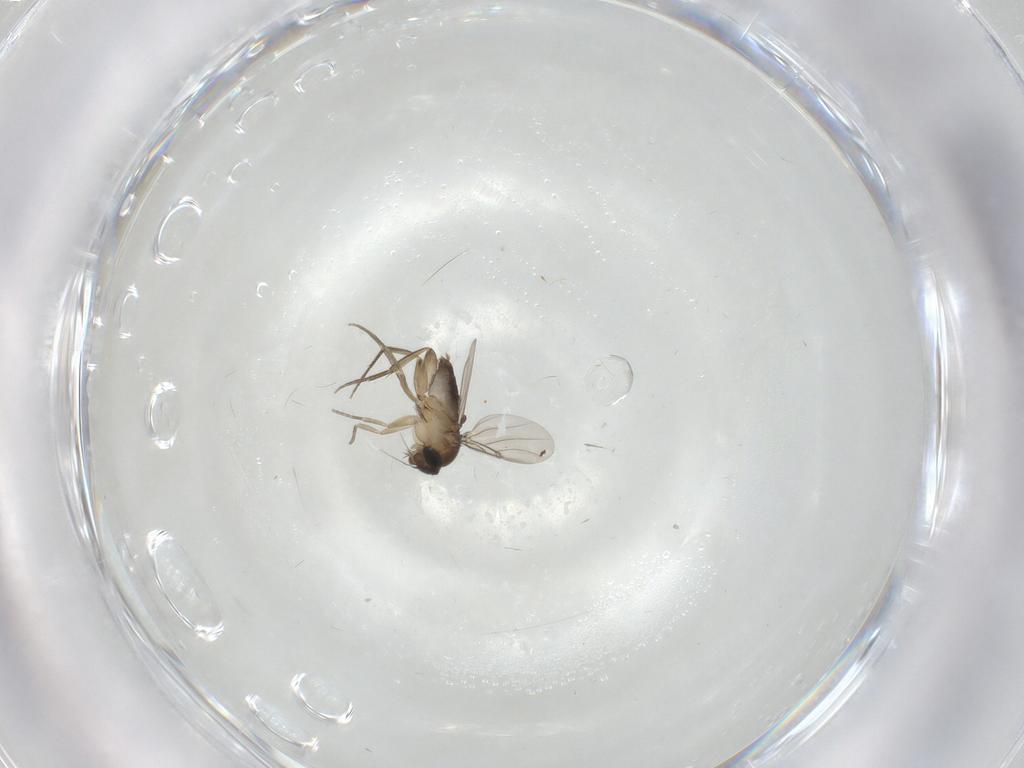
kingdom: Animalia
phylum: Arthropoda
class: Insecta
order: Diptera
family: Phoridae
